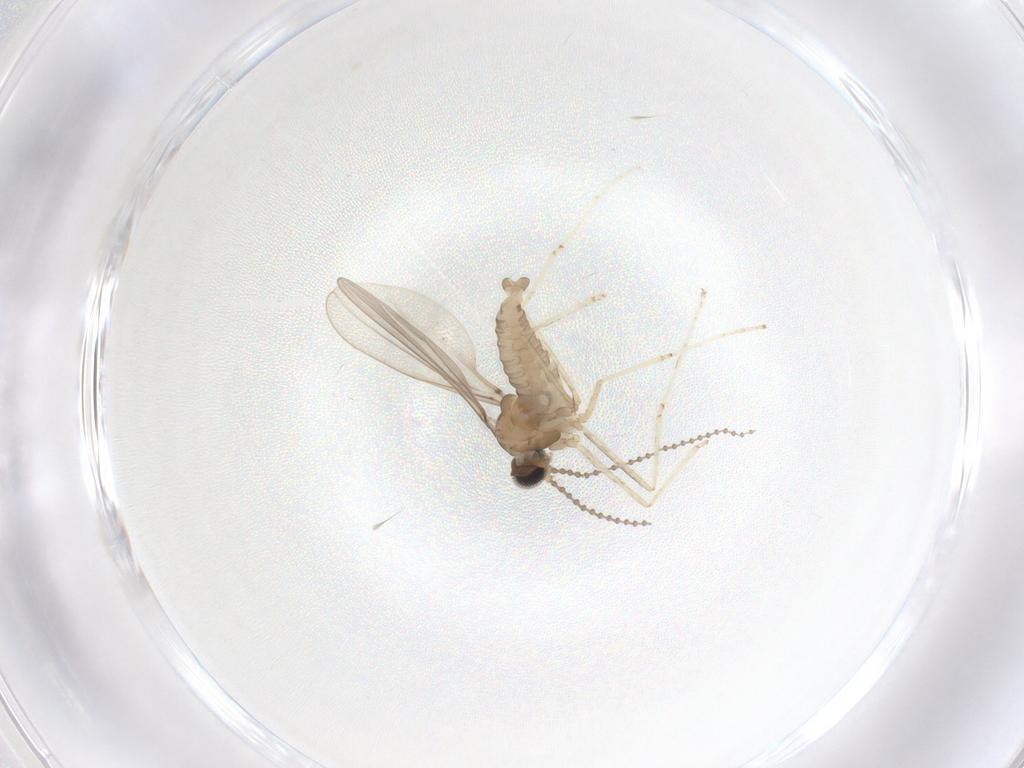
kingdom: Animalia
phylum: Arthropoda
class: Insecta
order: Diptera
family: Cecidomyiidae
